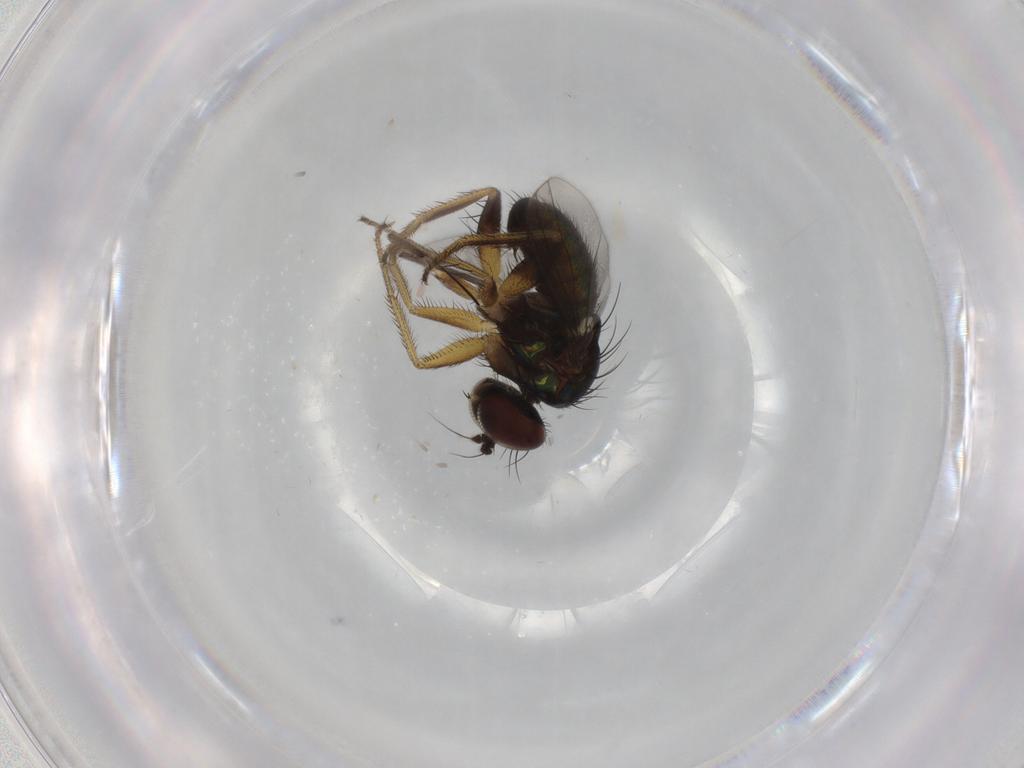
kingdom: Animalia
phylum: Arthropoda
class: Insecta
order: Diptera
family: Dolichopodidae
